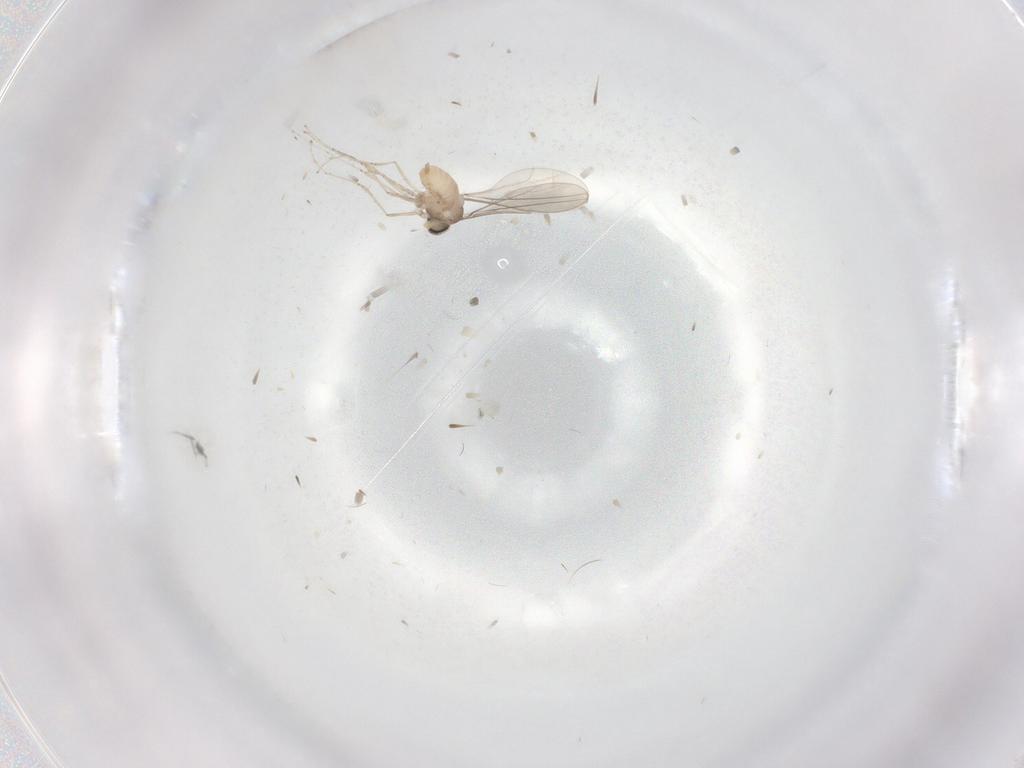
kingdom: Animalia
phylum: Arthropoda
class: Insecta
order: Diptera
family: Cecidomyiidae
